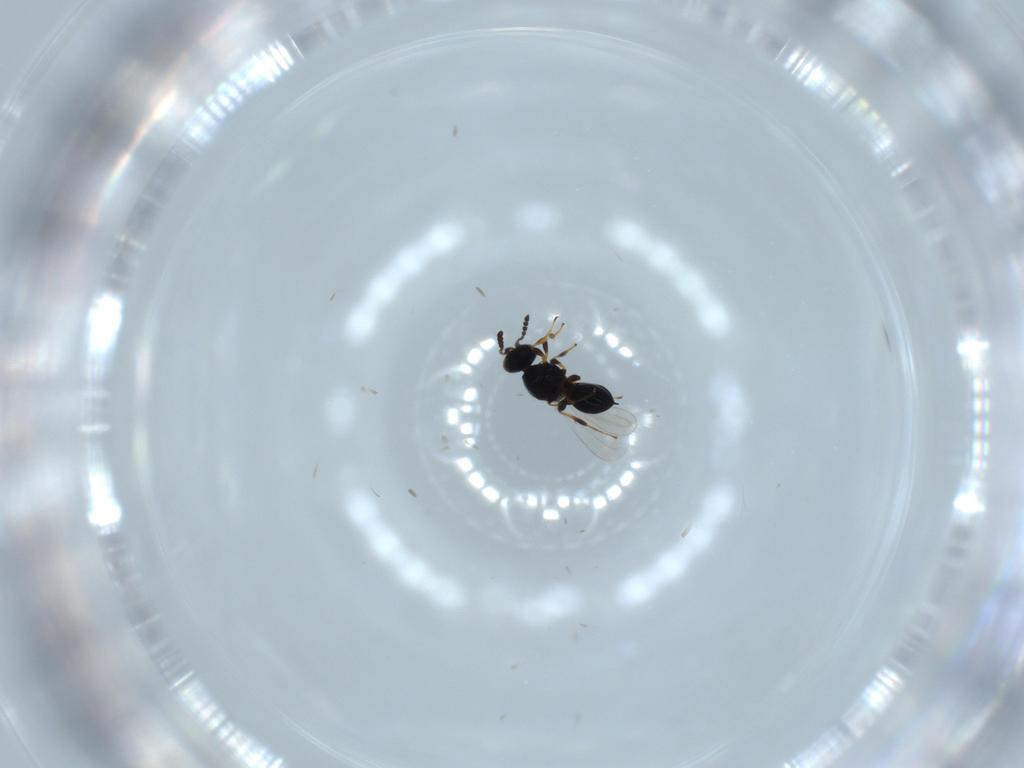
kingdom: Animalia
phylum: Arthropoda
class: Insecta
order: Hymenoptera
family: Platygastridae
